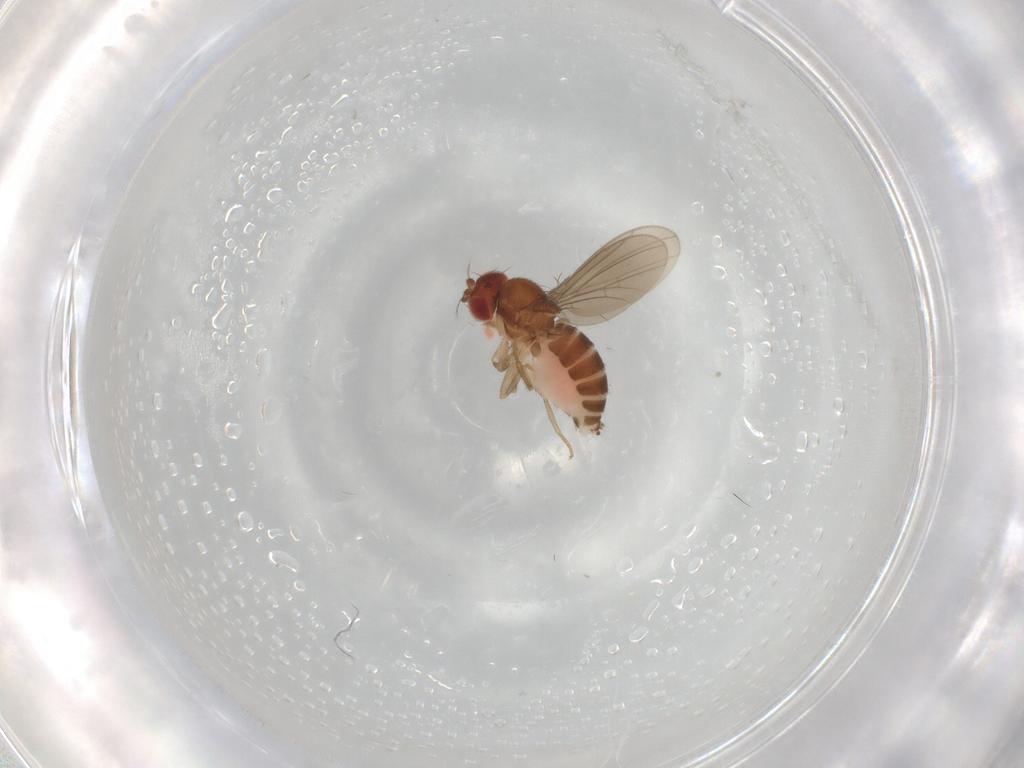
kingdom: Animalia
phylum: Arthropoda
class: Insecta
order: Diptera
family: Drosophilidae
